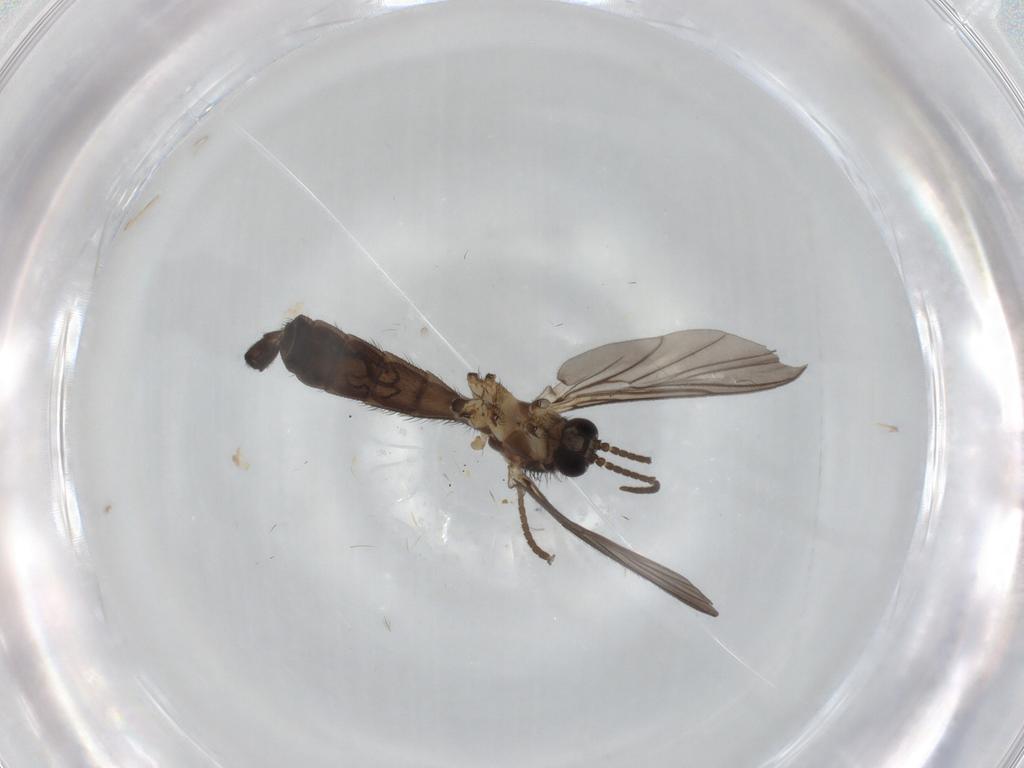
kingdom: Animalia
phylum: Arthropoda
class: Insecta
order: Diptera
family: Keroplatidae
